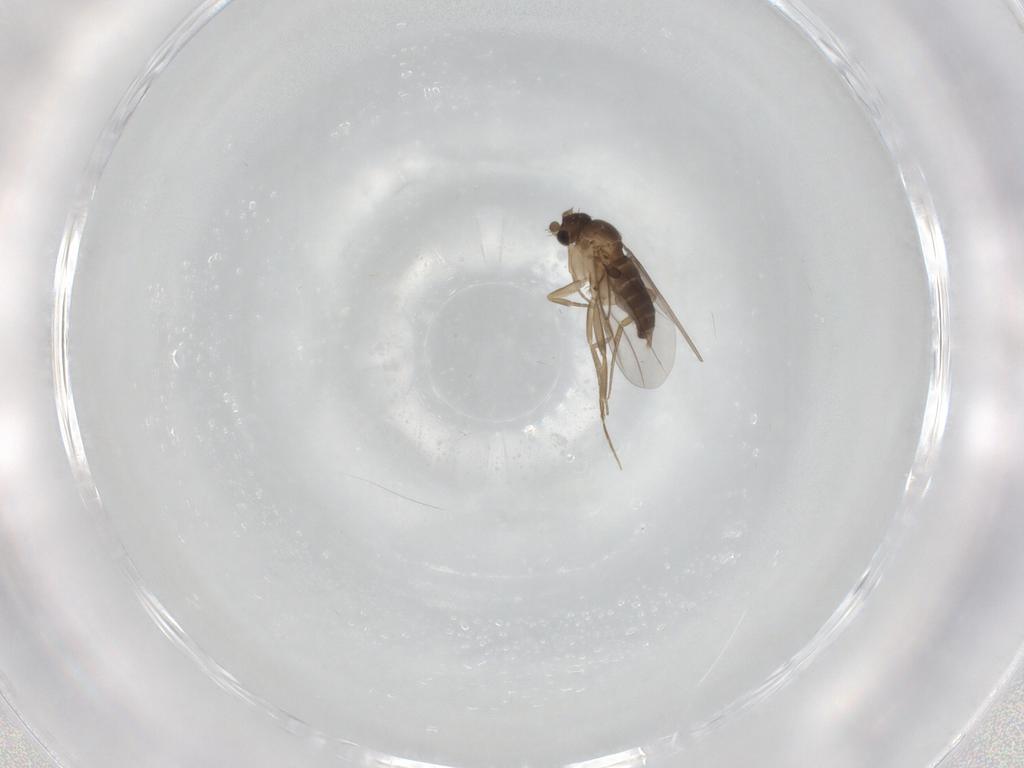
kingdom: Animalia
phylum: Arthropoda
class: Insecta
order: Diptera
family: Phoridae
